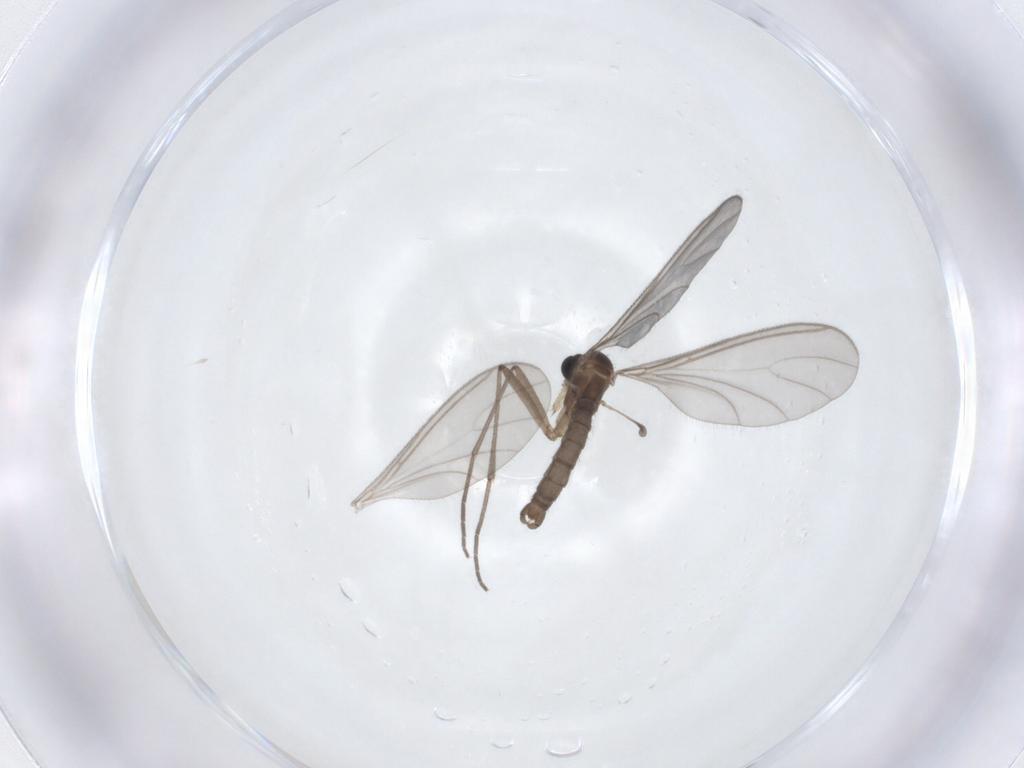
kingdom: Animalia
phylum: Arthropoda
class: Insecta
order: Diptera
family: Sciaridae
